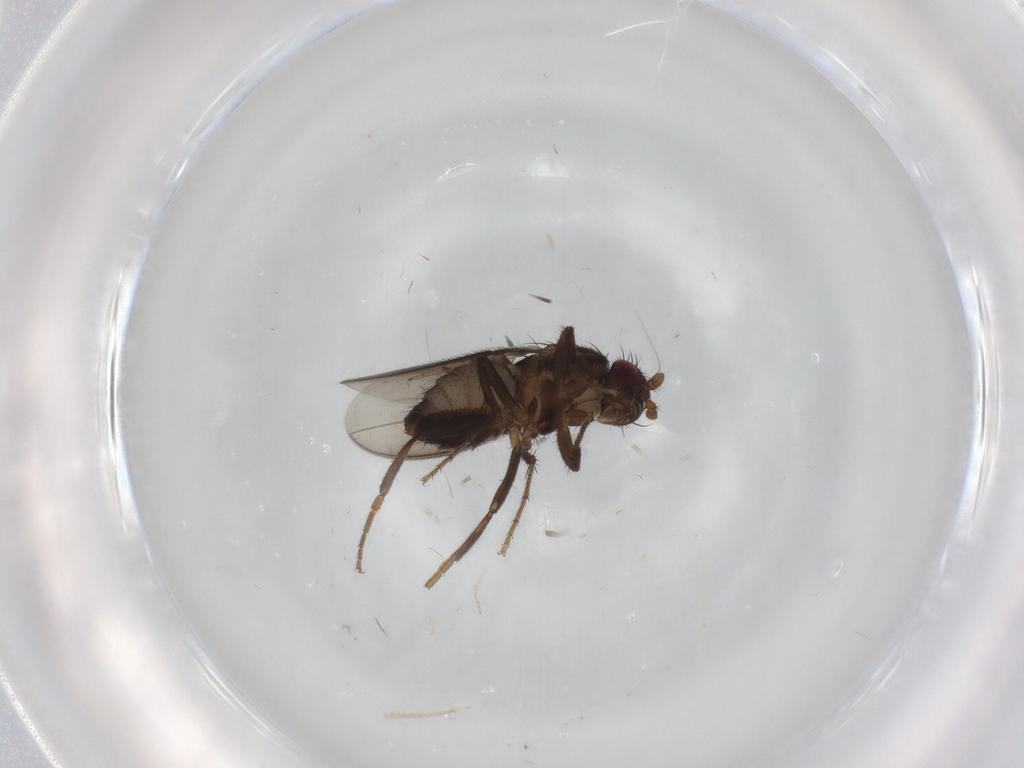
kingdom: Animalia
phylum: Arthropoda
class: Insecta
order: Diptera
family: Sphaeroceridae
